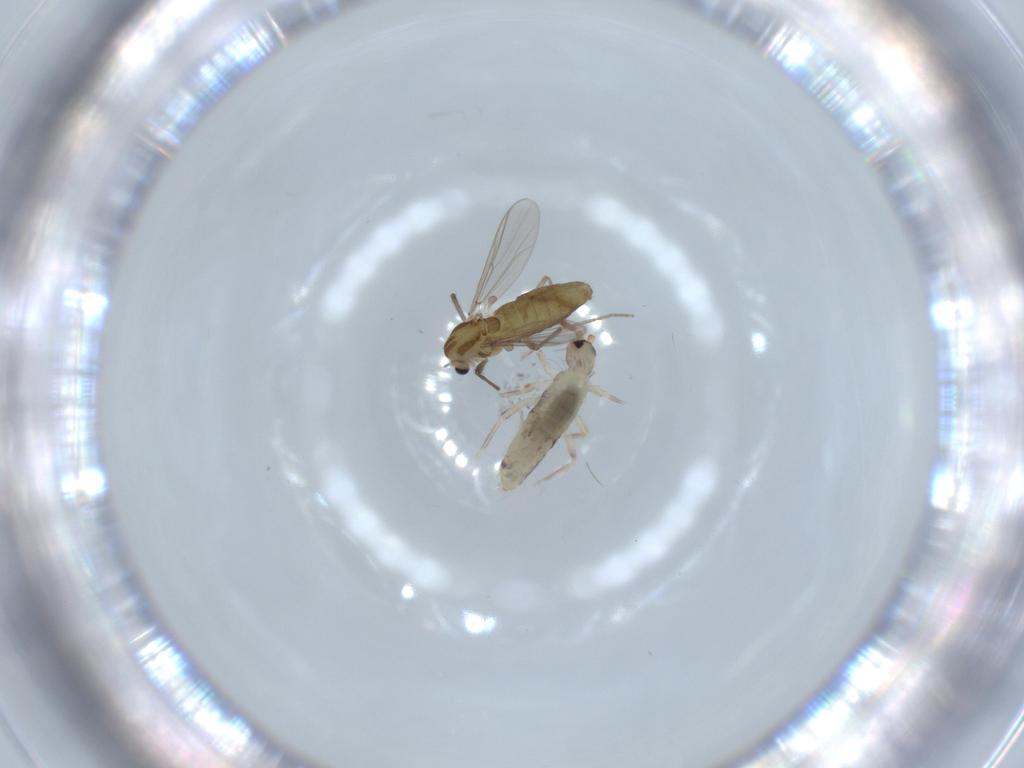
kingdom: Animalia
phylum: Arthropoda
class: Insecta
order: Diptera
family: Chironomidae
